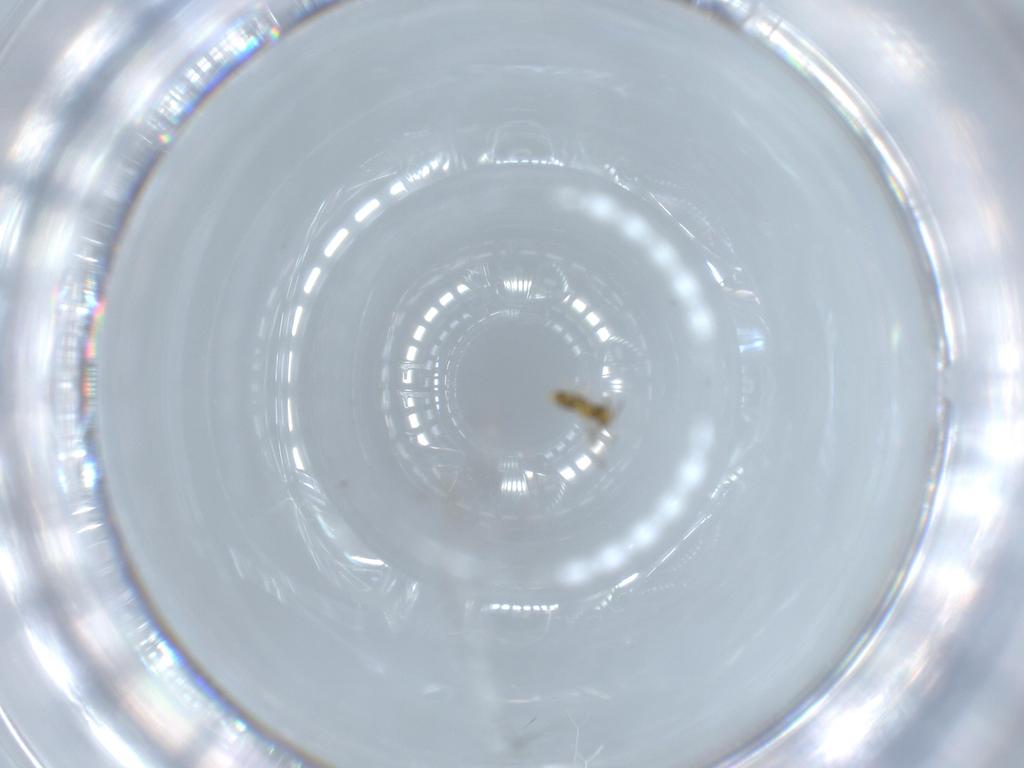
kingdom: Animalia
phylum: Arthropoda
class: Insecta
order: Hymenoptera
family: Aphelinidae
